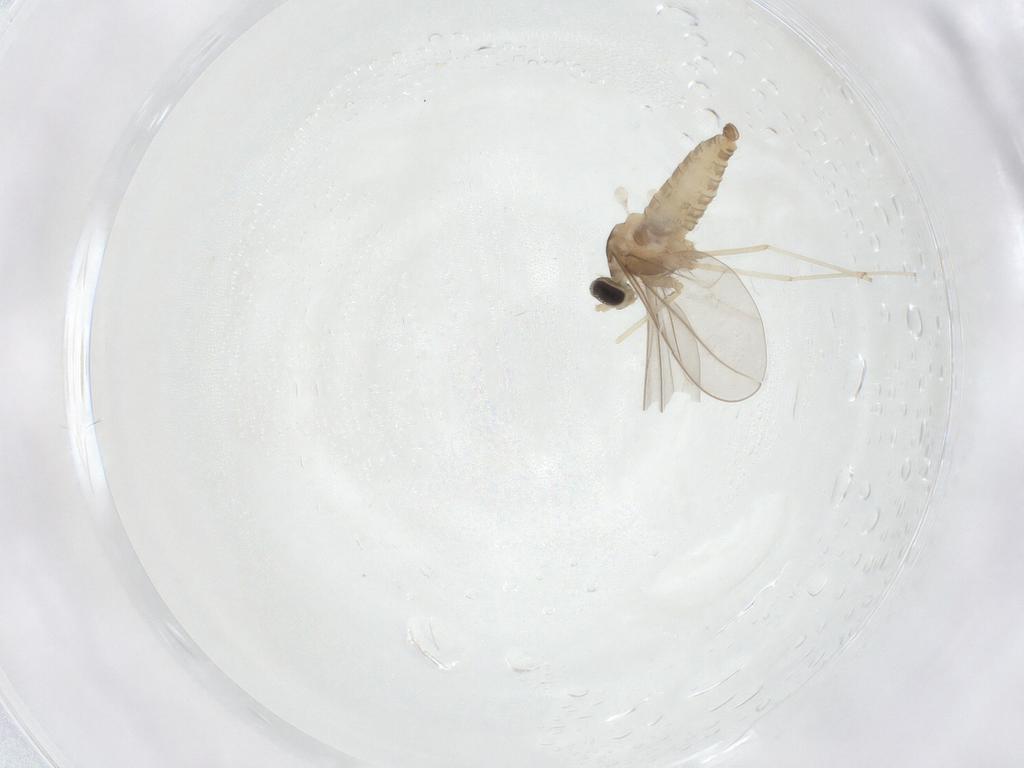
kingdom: Animalia
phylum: Arthropoda
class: Insecta
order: Diptera
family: Cecidomyiidae
